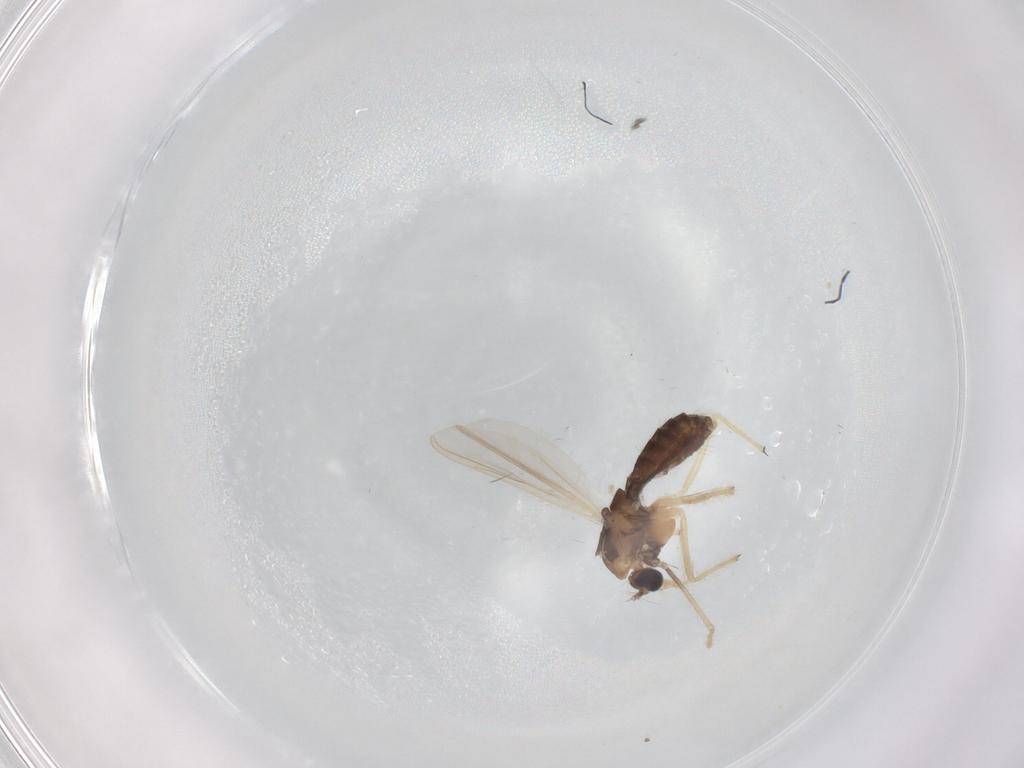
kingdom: Animalia
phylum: Arthropoda
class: Insecta
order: Diptera
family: Chironomidae
